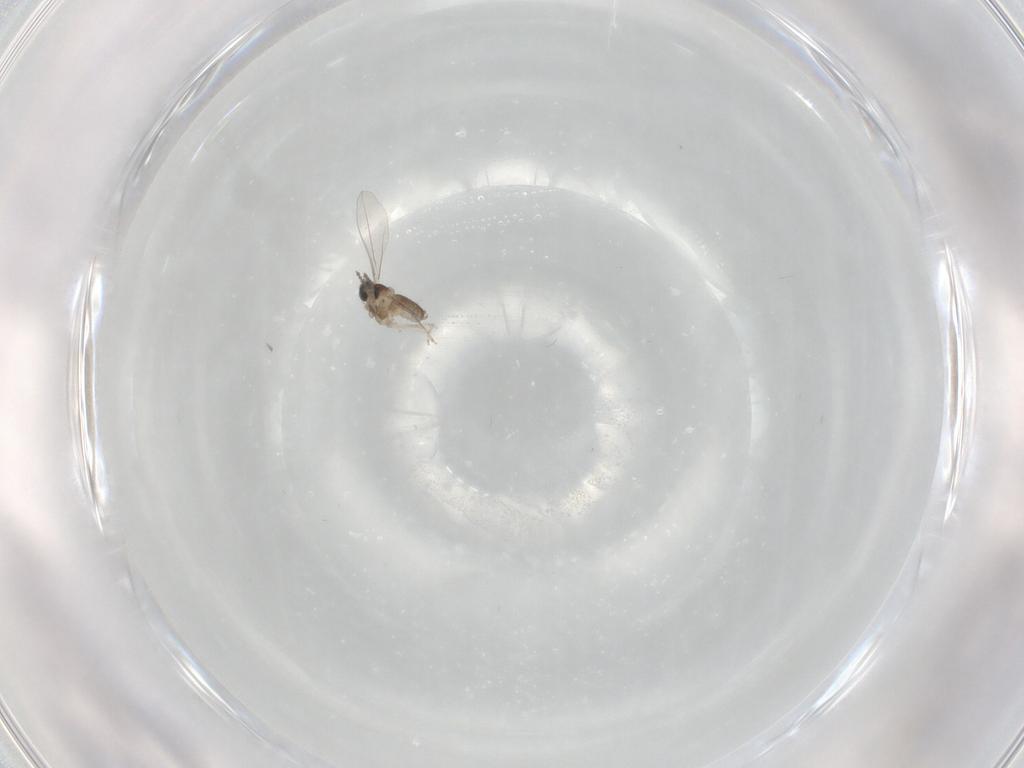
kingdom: Animalia
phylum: Arthropoda
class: Insecta
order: Diptera
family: Cecidomyiidae
